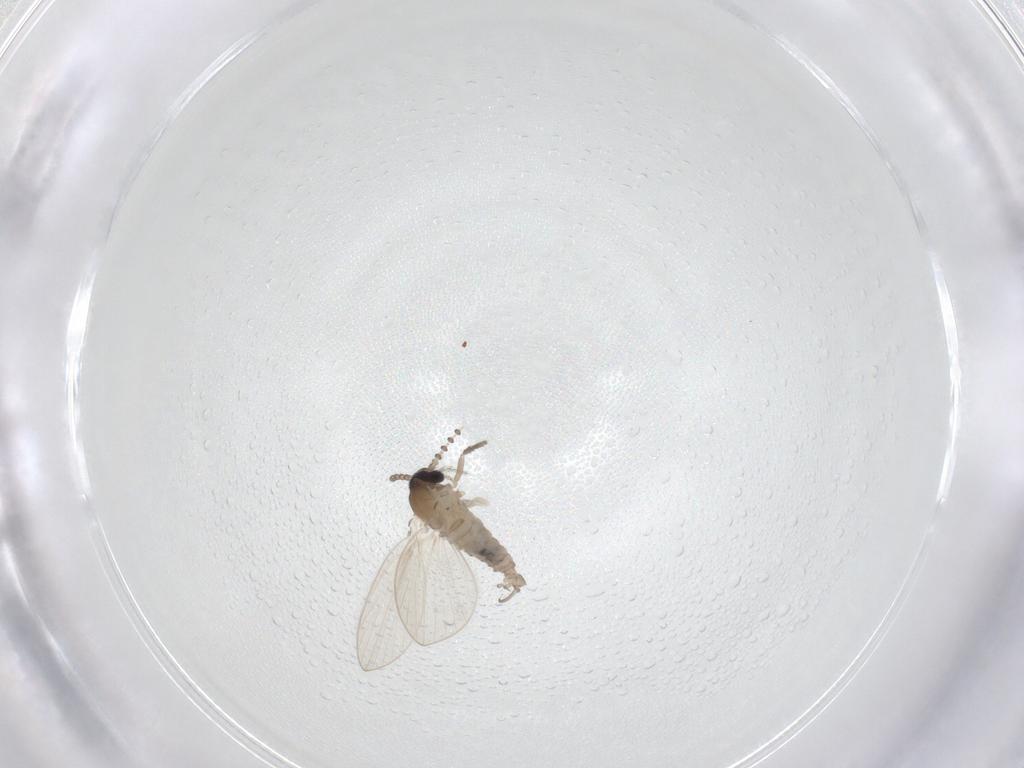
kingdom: Animalia
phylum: Arthropoda
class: Insecta
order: Diptera
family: Psychodidae
